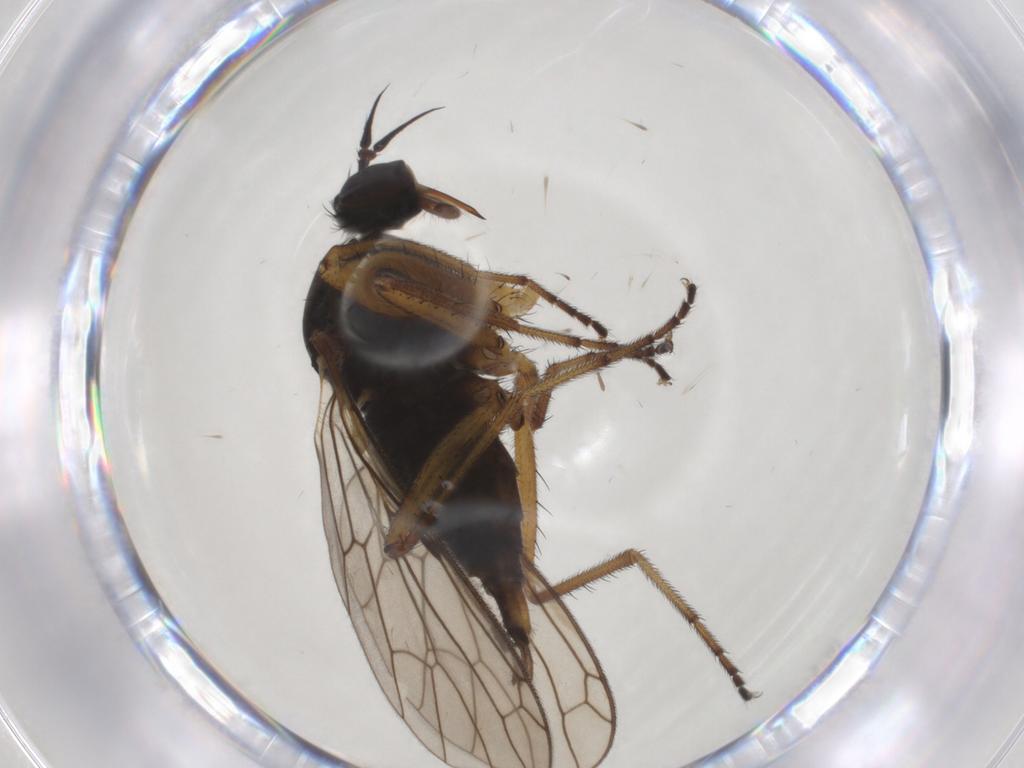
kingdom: Animalia
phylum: Arthropoda
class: Insecta
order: Diptera
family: Empididae
